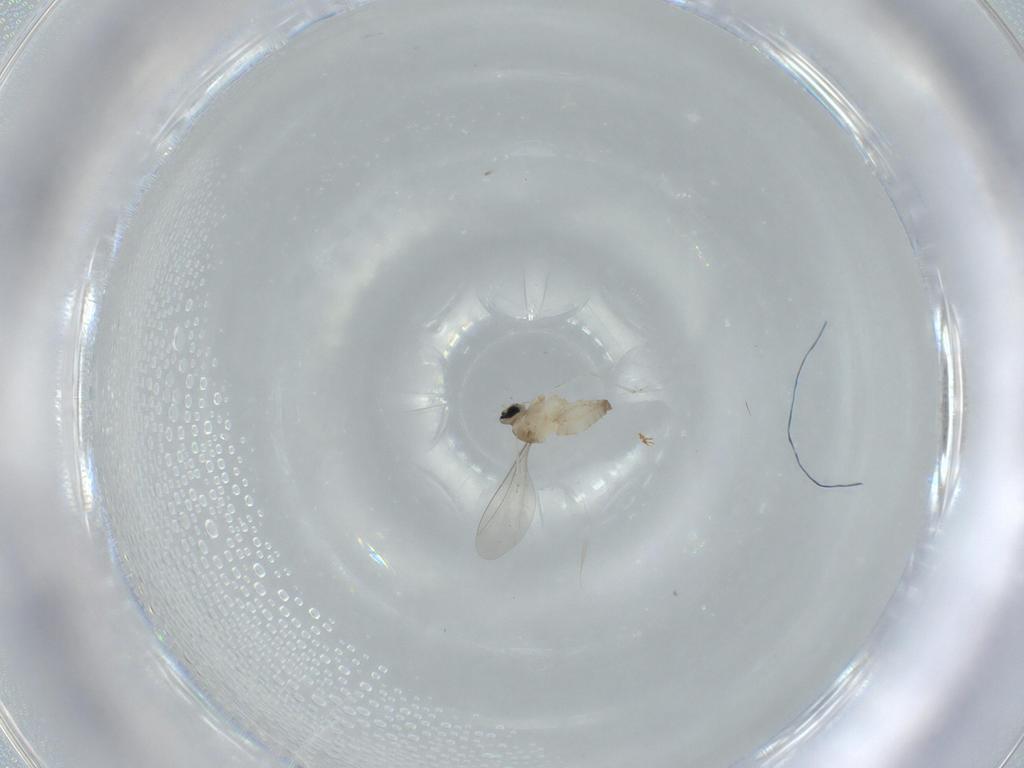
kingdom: Animalia
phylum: Arthropoda
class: Insecta
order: Diptera
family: Cecidomyiidae
